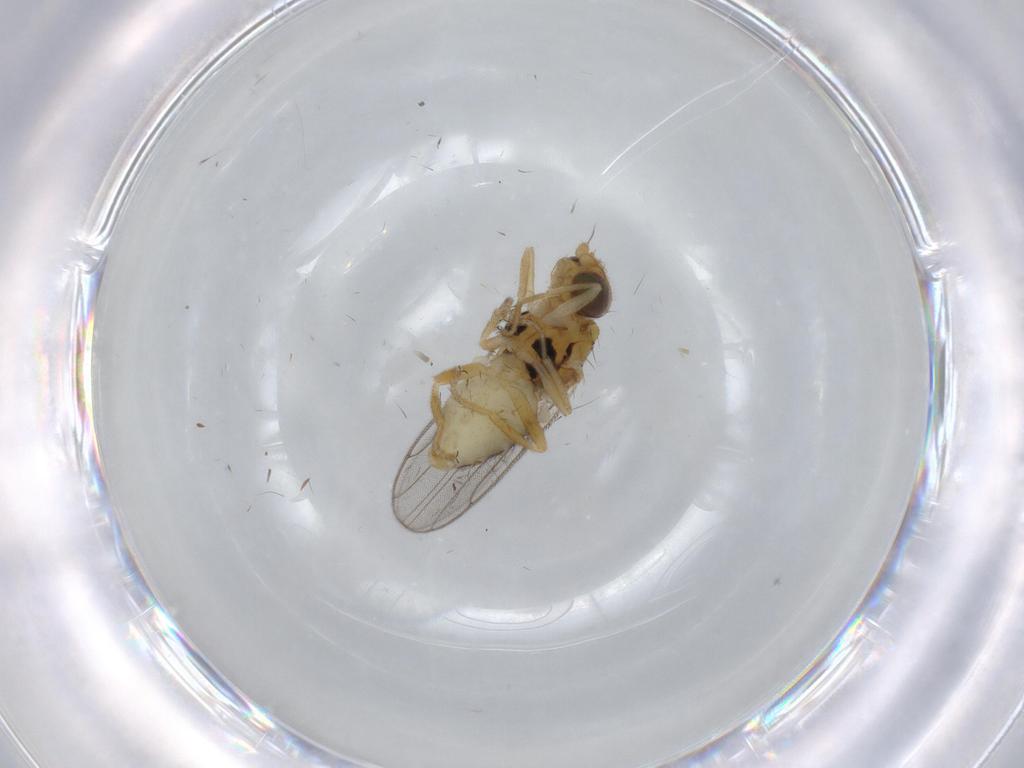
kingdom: Animalia
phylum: Arthropoda
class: Insecta
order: Diptera
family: Chloropidae
